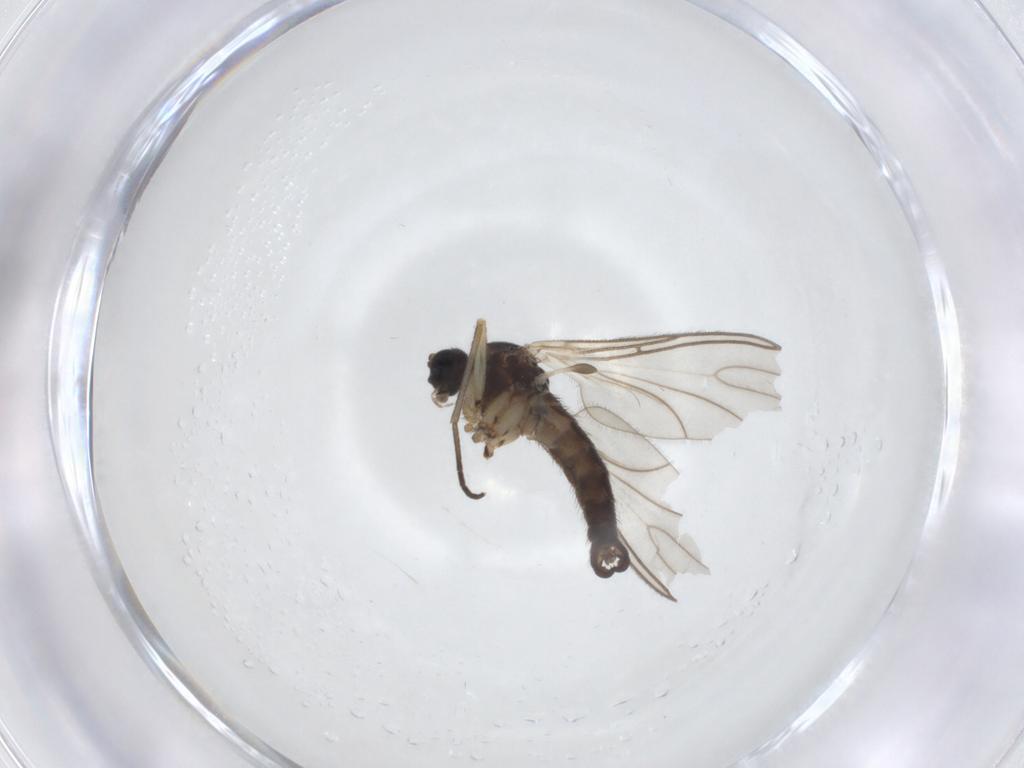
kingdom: Animalia
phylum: Arthropoda
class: Insecta
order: Diptera
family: Sciaridae
